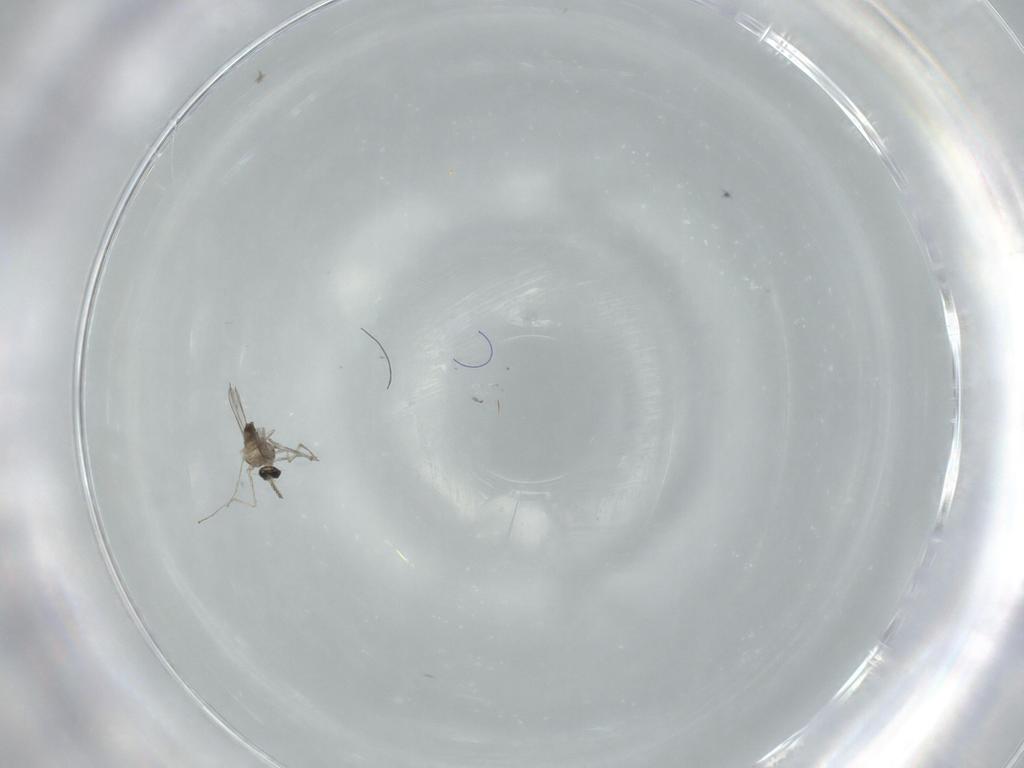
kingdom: Animalia
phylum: Arthropoda
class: Insecta
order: Diptera
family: Cecidomyiidae
